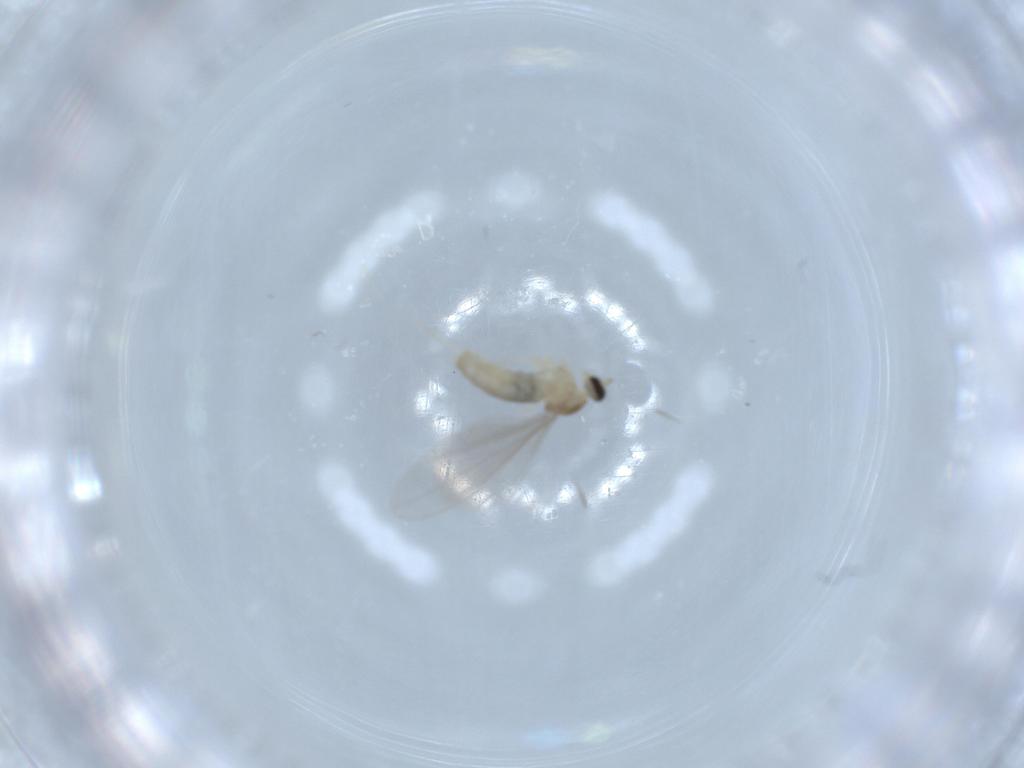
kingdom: Animalia
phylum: Arthropoda
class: Insecta
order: Diptera
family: Cecidomyiidae
